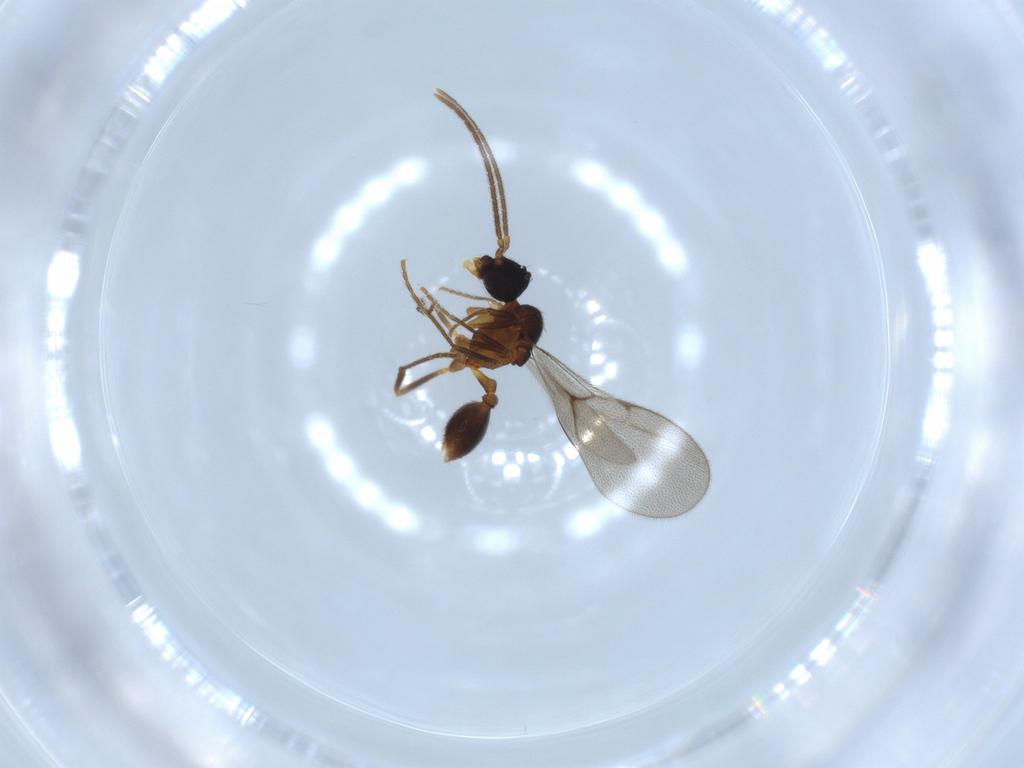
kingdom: Animalia
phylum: Arthropoda
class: Insecta
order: Hymenoptera
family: Formicidae
